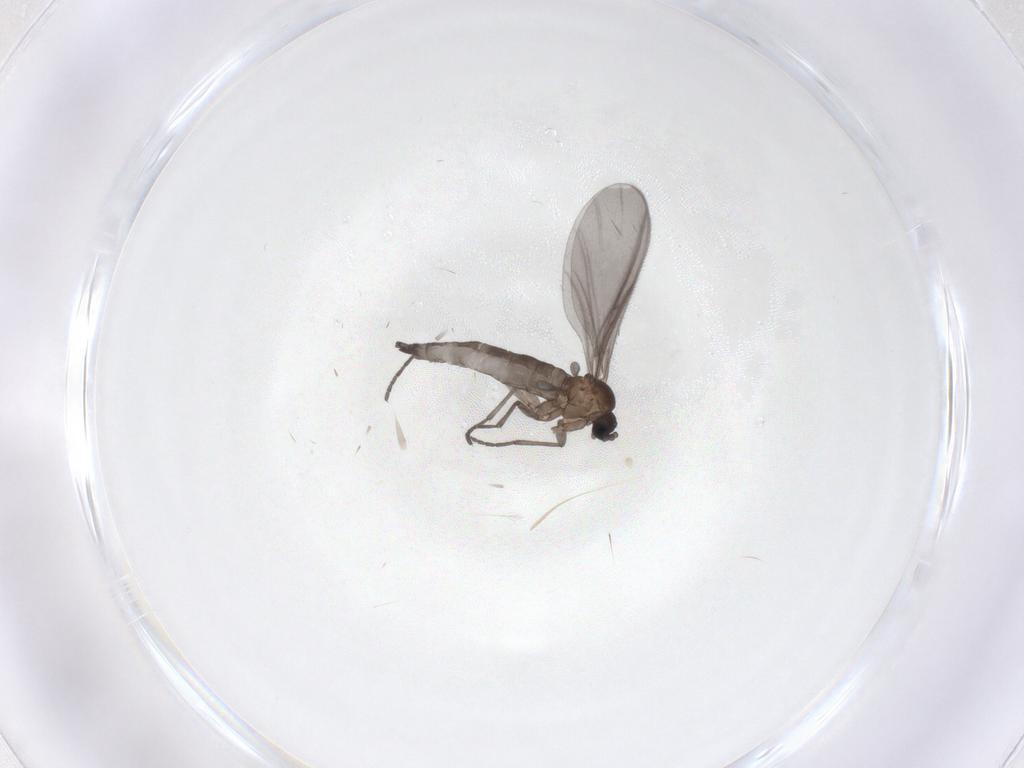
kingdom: Animalia
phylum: Arthropoda
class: Insecta
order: Diptera
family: Sciaridae
